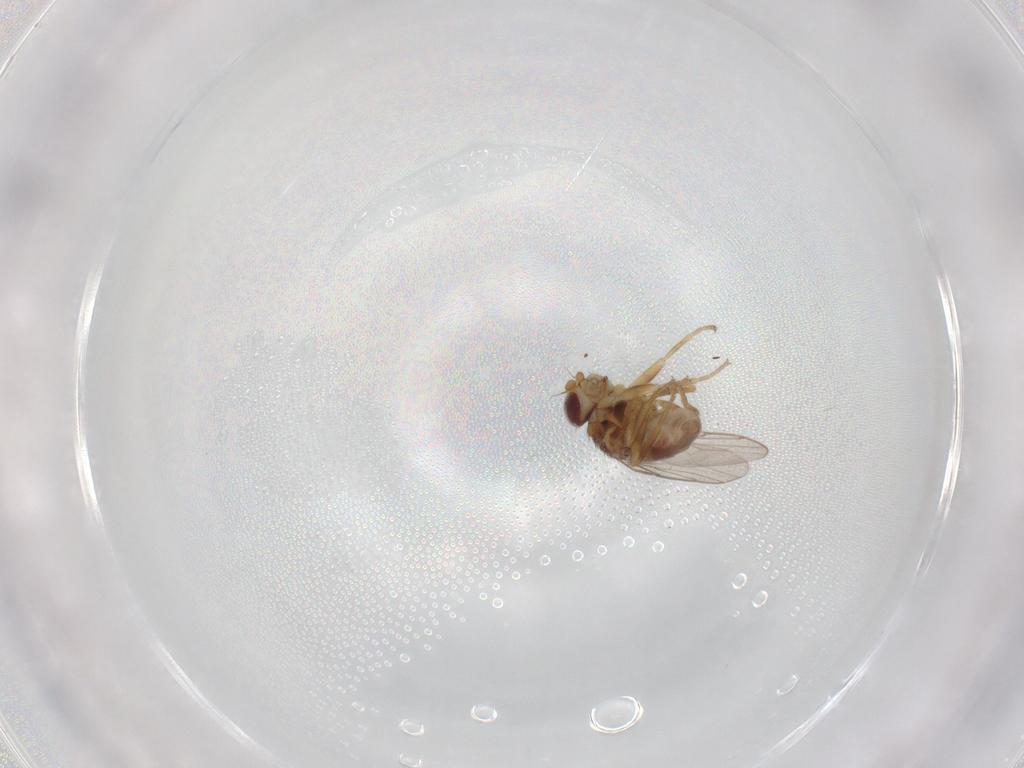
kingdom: Animalia
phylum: Arthropoda
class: Insecta
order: Diptera
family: Chloropidae
